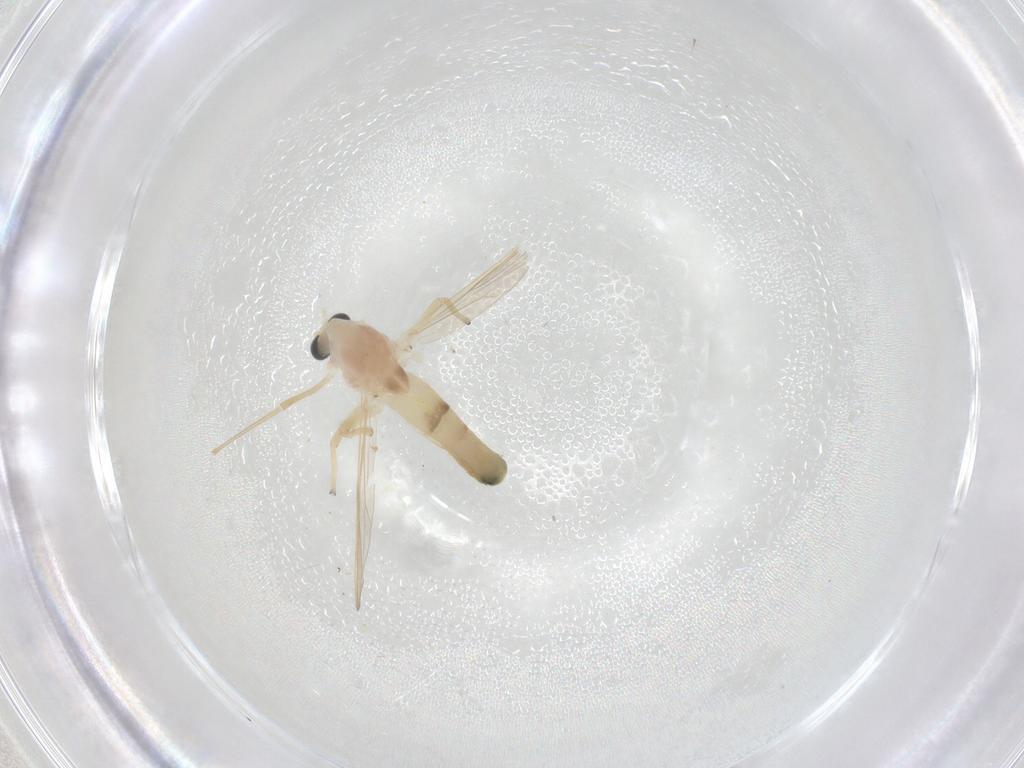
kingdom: Animalia
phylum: Arthropoda
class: Insecta
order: Diptera
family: Chironomidae
